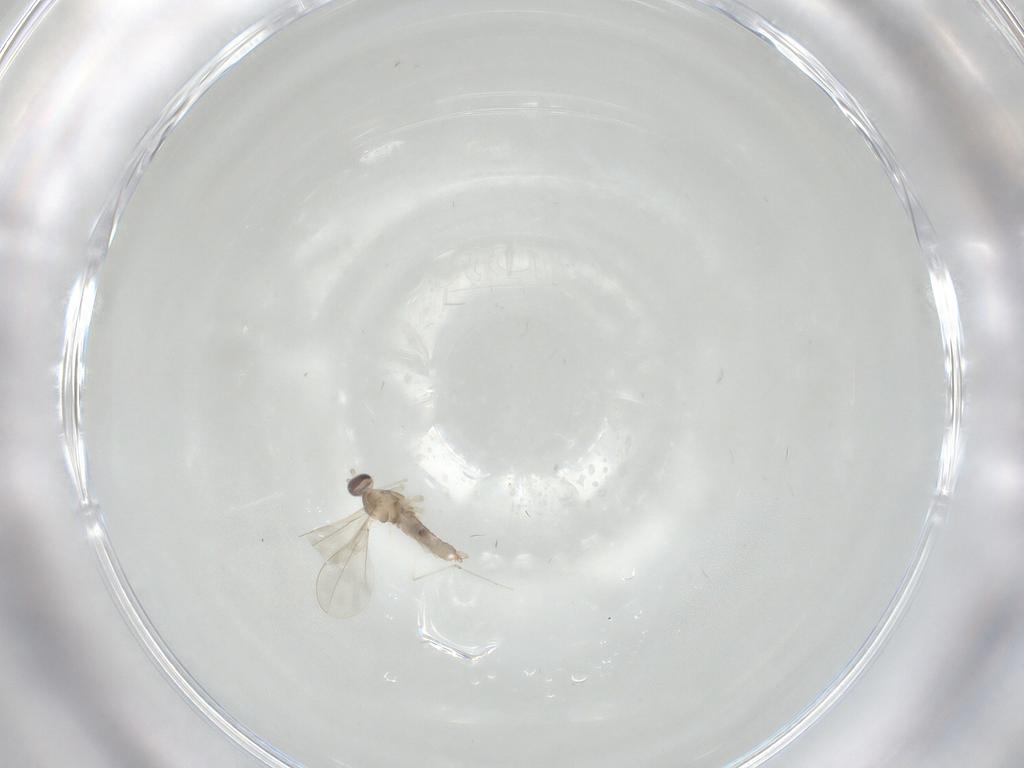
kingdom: Animalia
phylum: Arthropoda
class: Insecta
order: Diptera
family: Cecidomyiidae
